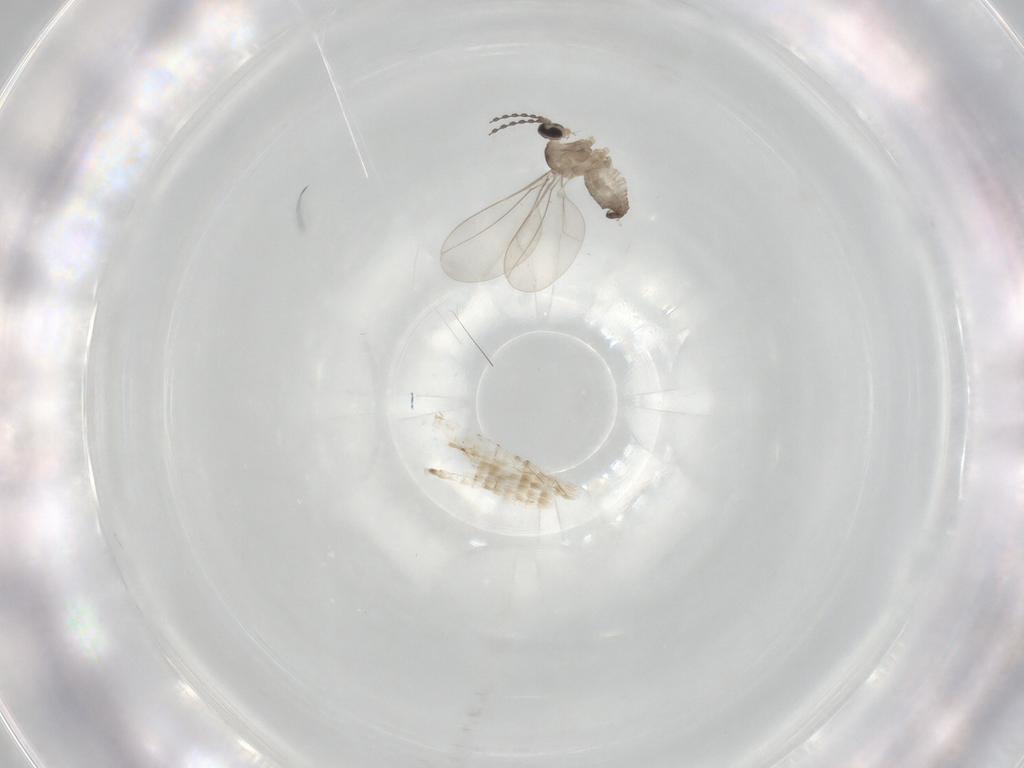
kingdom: Animalia
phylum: Arthropoda
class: Insecta
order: Diptera
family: Cecidomyiidae
